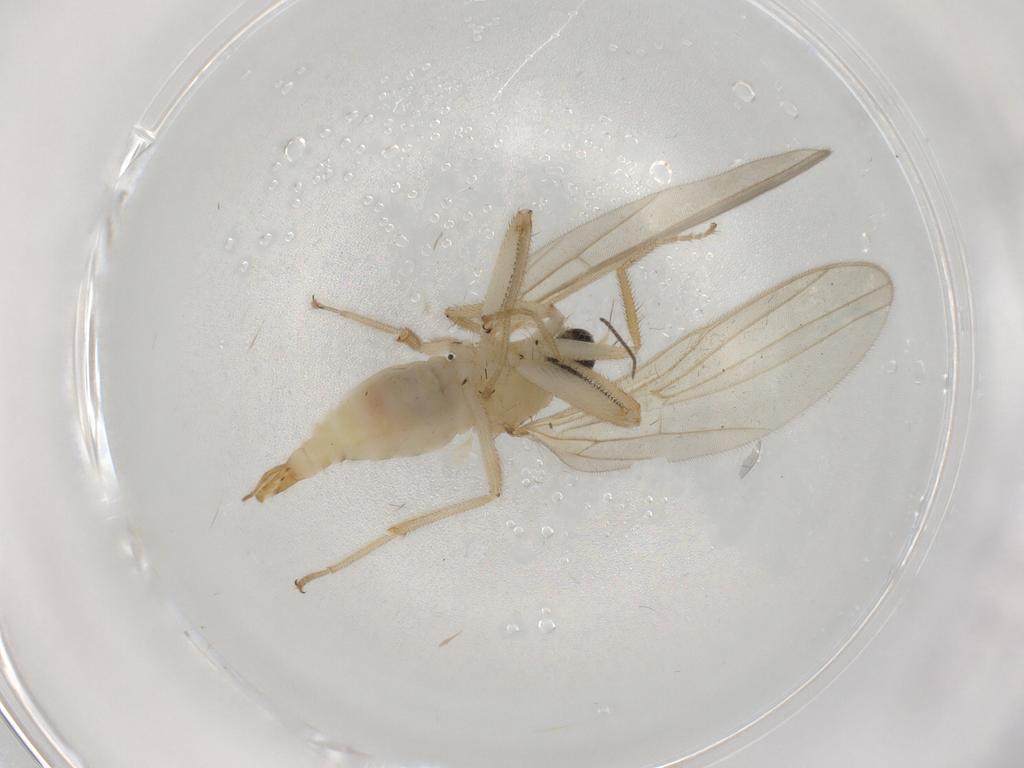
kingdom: Animalia
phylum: Arthropoda
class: Insecta
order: Diptera
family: Hybotidae
